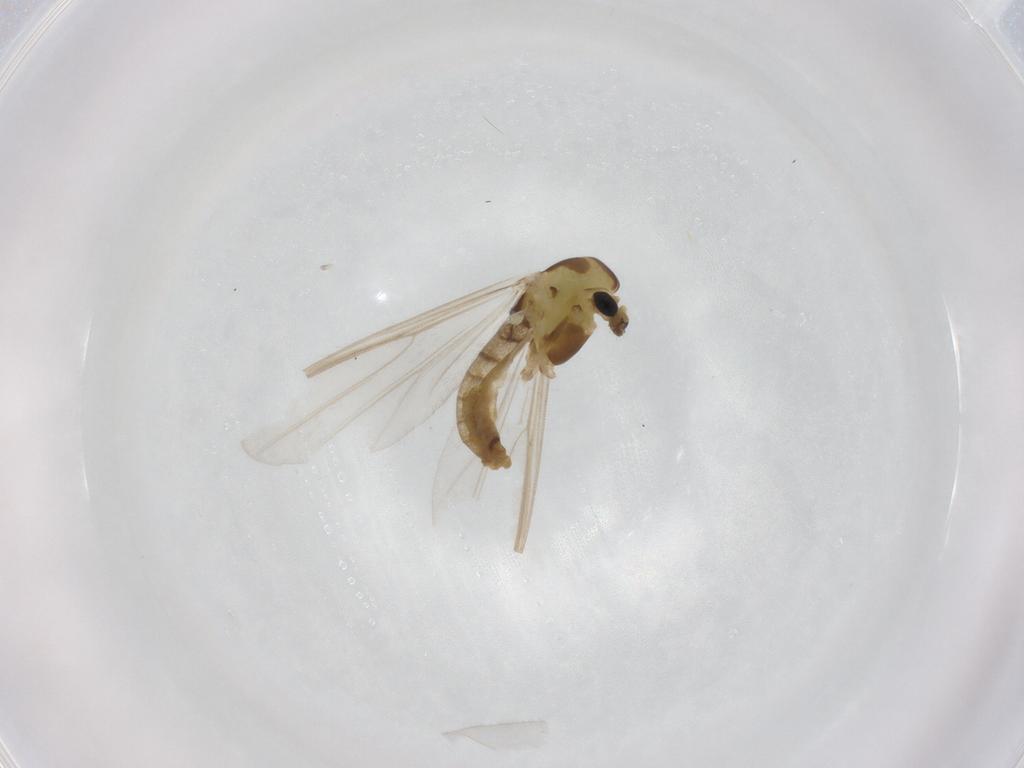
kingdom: Animalia
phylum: Arthropoda
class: Insecta
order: Diptera
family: Chironomidae
